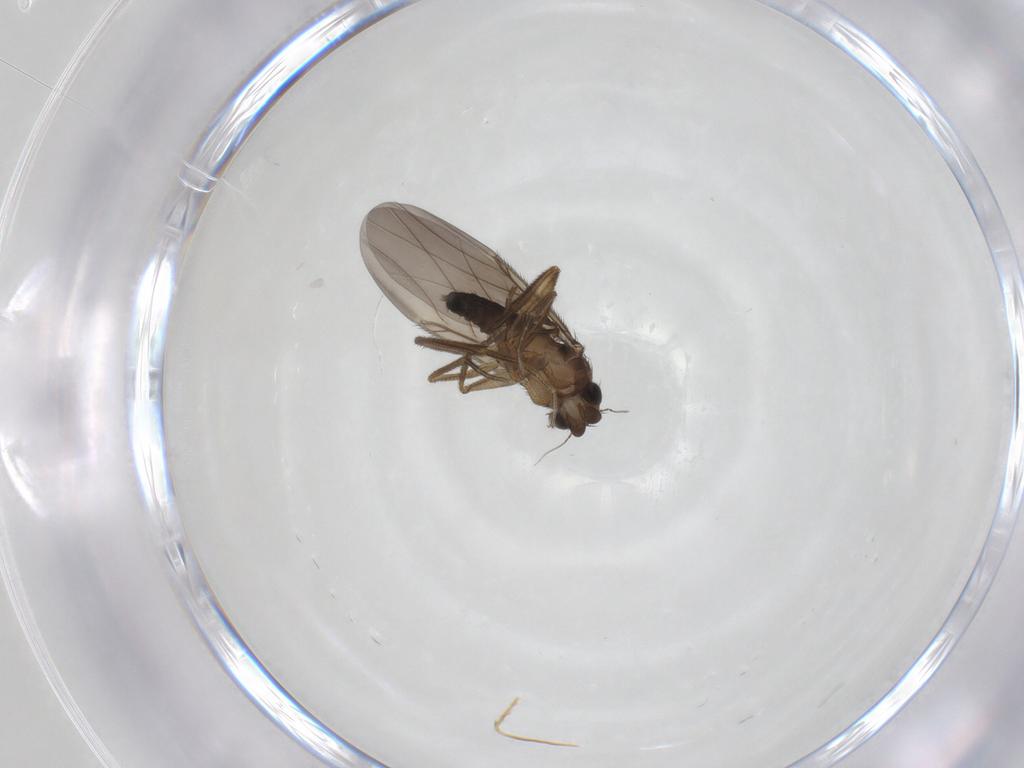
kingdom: Animalia
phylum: Arthropoda
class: Insecta
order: Diptera
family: Phoridae
